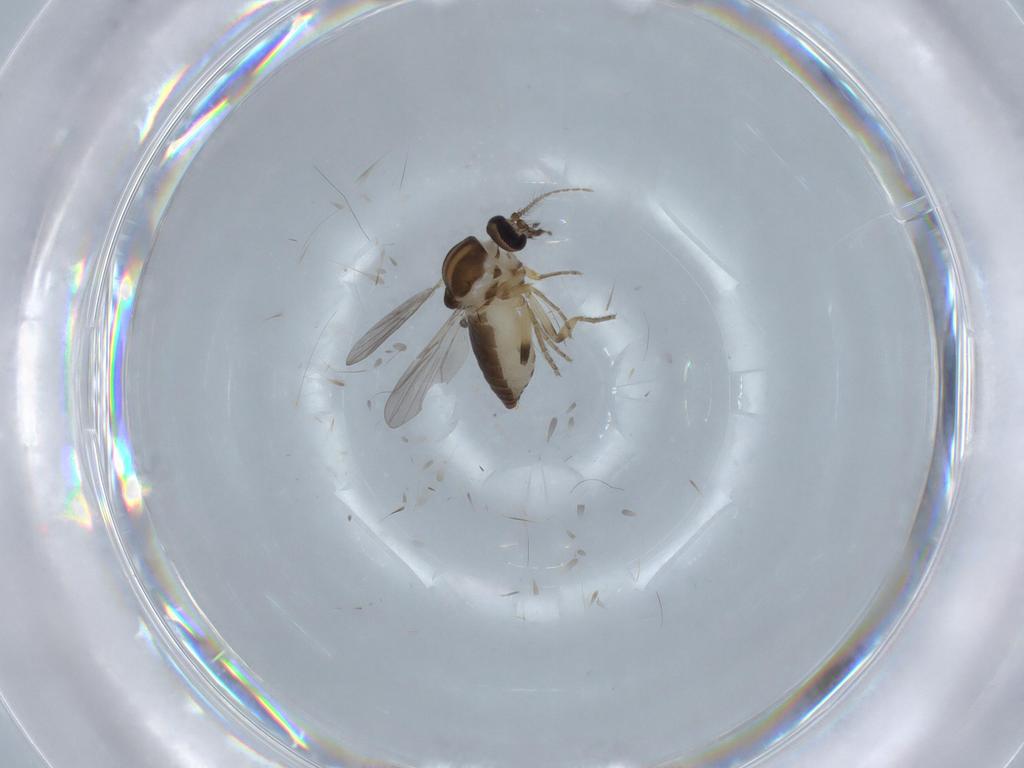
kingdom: Animalia
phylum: Arthropoda
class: Insecta
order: Diptera
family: Ceratopogonidae
